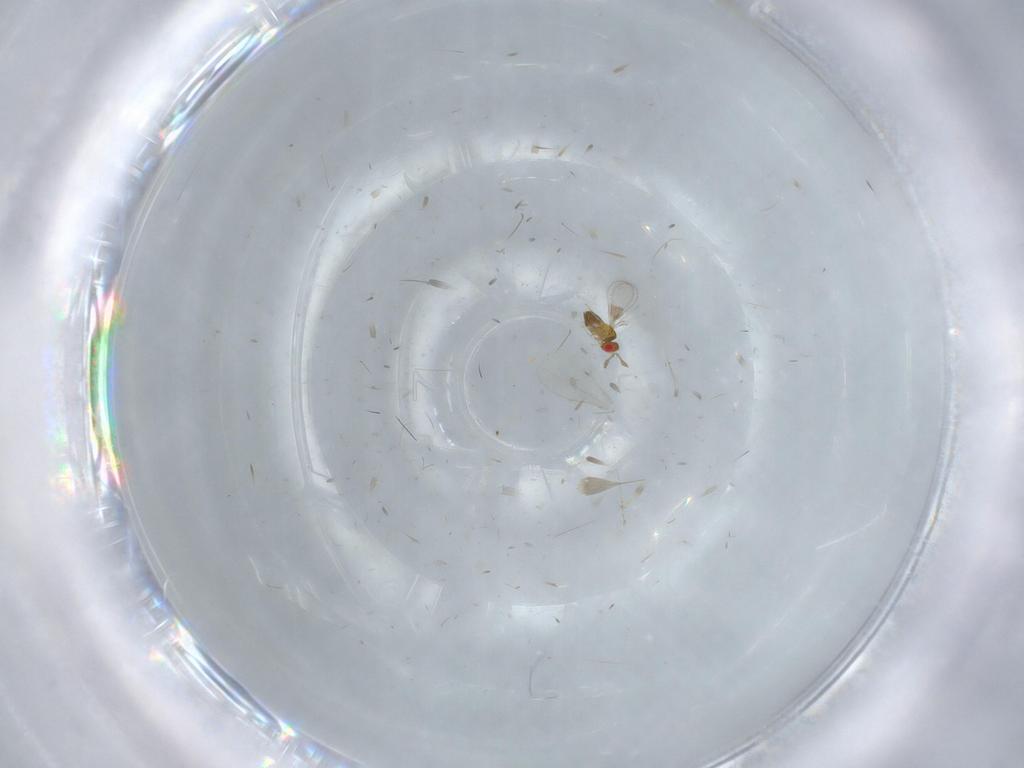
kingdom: Animalia
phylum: Arthropoda
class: Insecta
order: Hymenoptera
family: Trichogrammatidae
